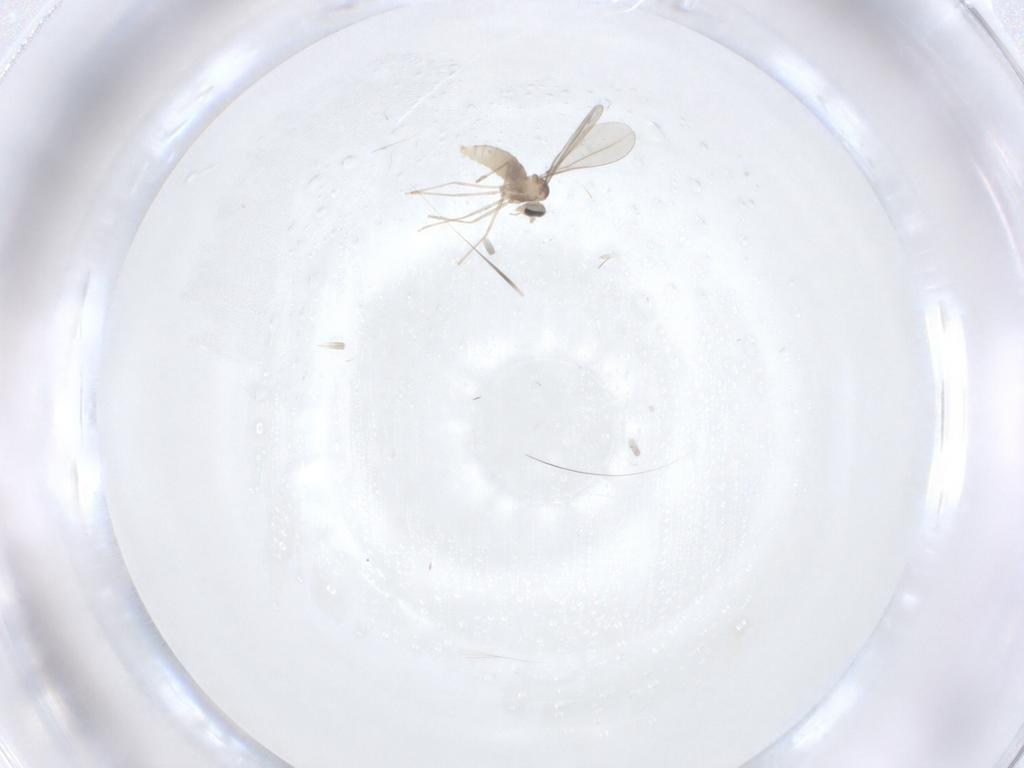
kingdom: Animalia
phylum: Arthropoda
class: Insecta
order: Diptera
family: Cecidomyiidae
